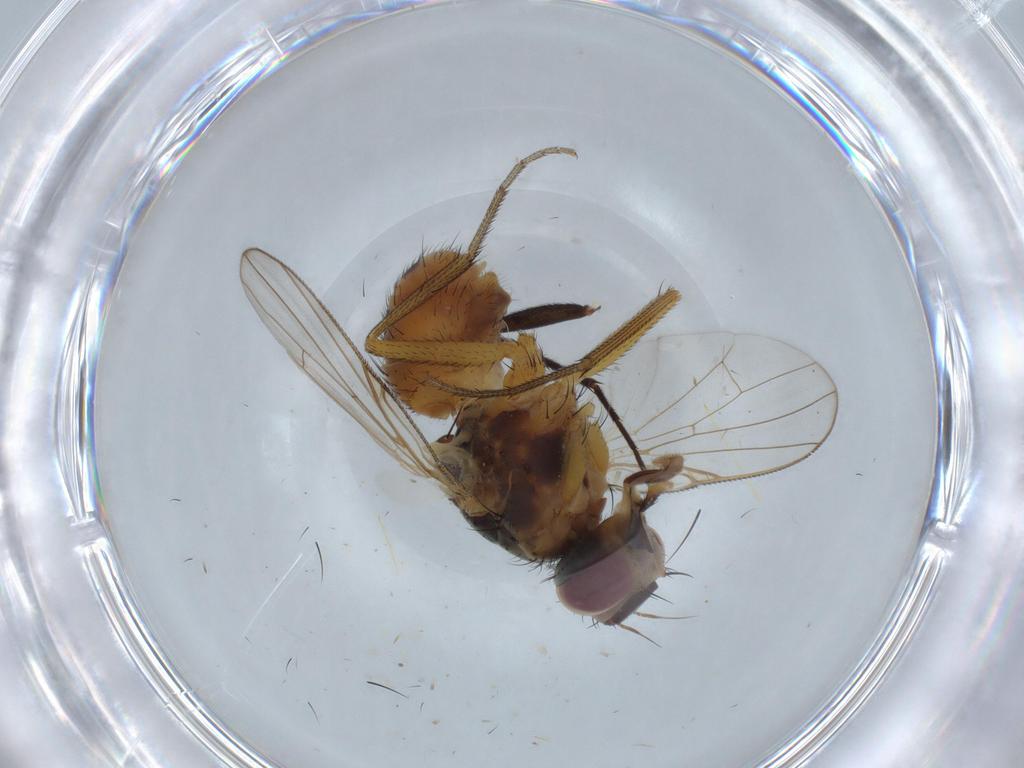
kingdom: Animalia
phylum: Arthropoda
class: Insecta
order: Diptera
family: Dolichopodidae
